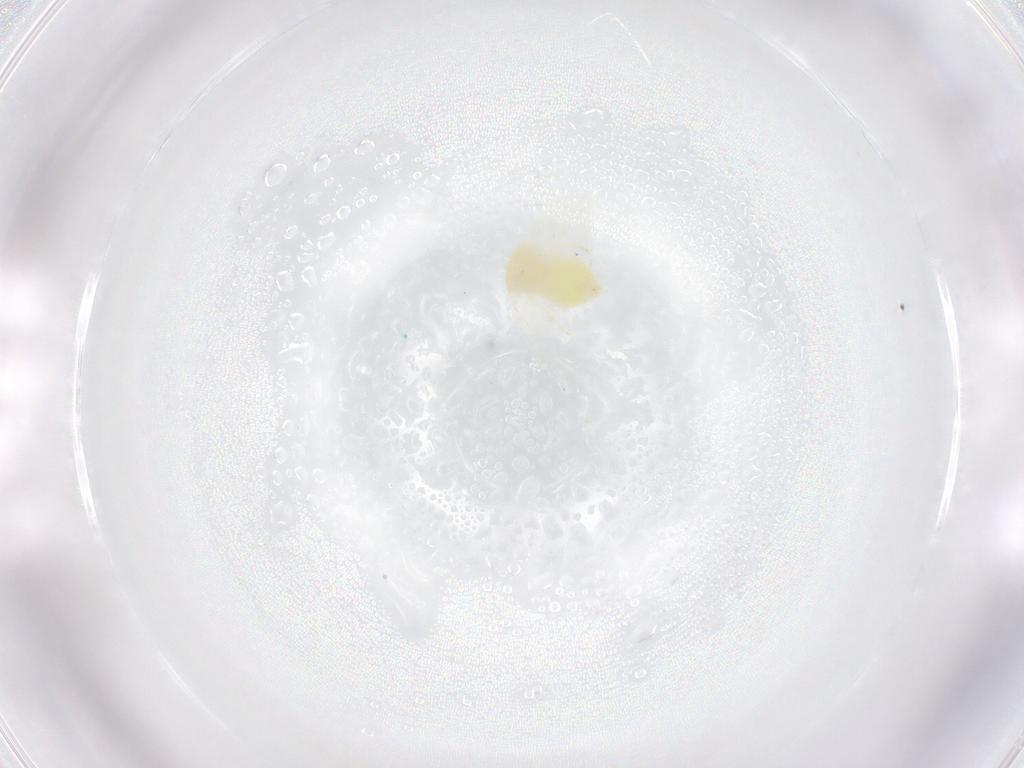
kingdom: Animalia
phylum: Arthropoda
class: Insecta
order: Hemiptera
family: Aleyrodidae
